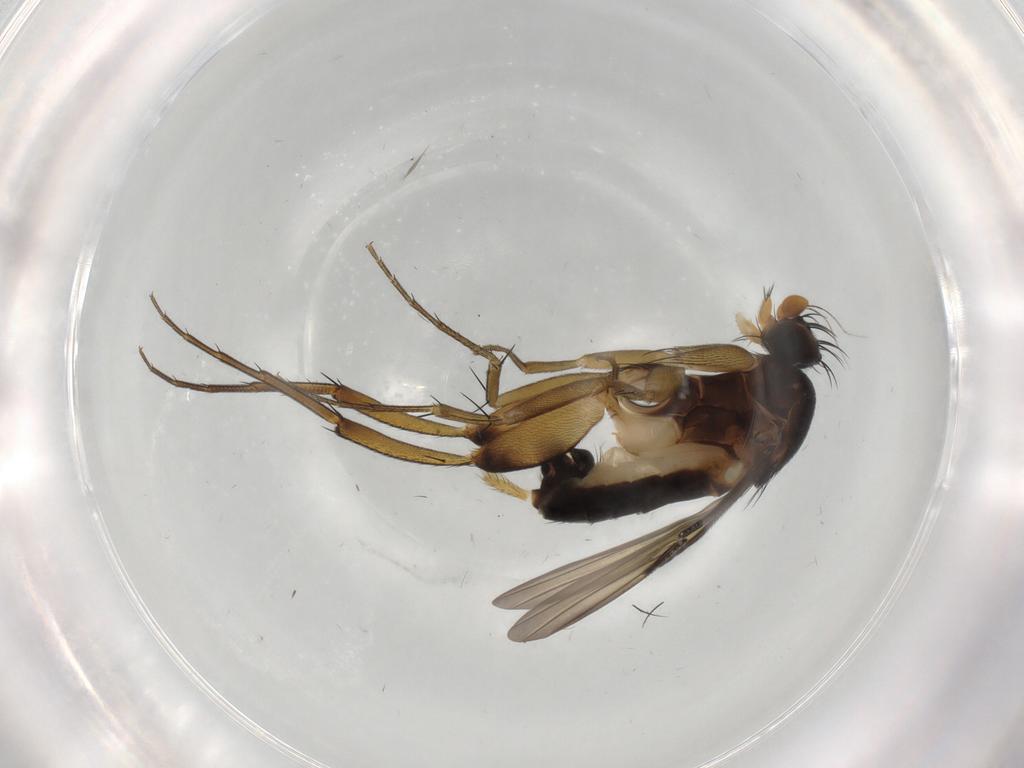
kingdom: Animalia
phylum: Arthropoda
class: Insecta
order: Diptera
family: Phoridae
